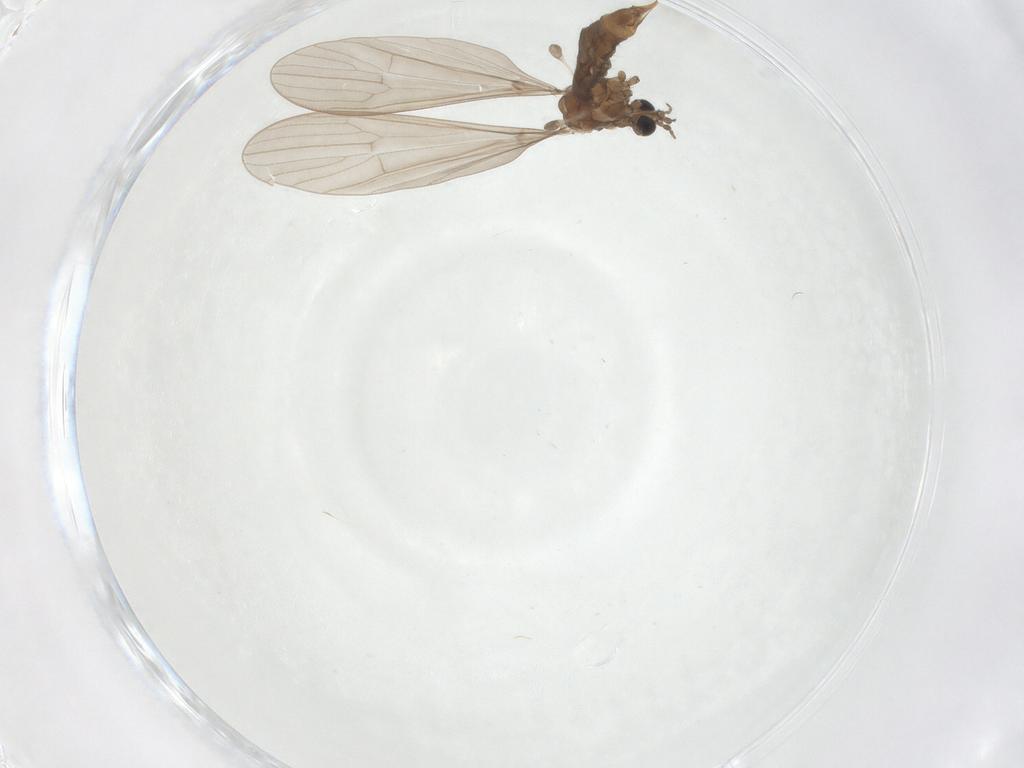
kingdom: Animalia
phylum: Arthropoda
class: Insecta
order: Diptera
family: Limoniidae
